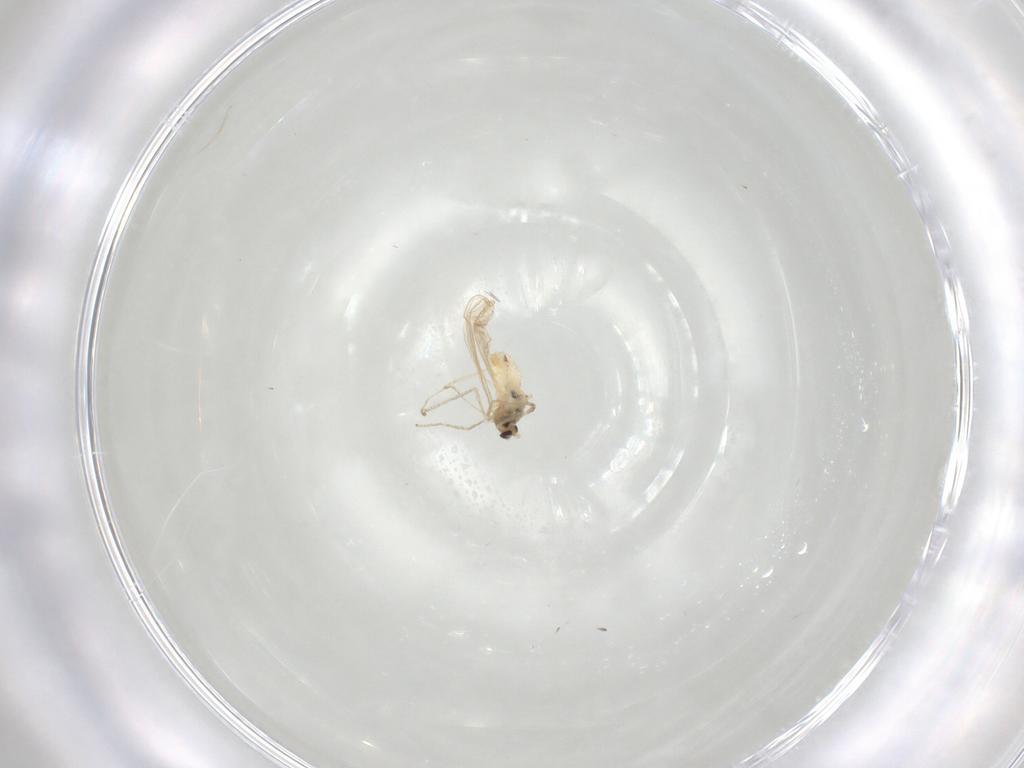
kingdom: Animalia
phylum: Arthropoda
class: Insecta
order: Diptera
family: Cecidomyiidae
